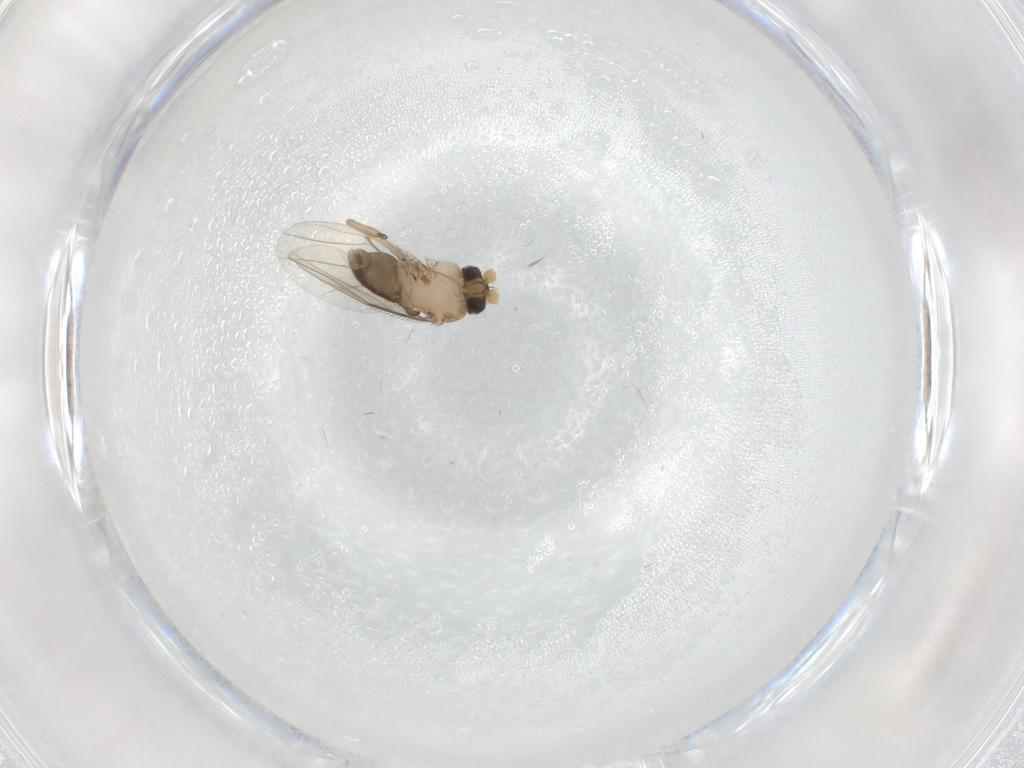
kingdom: Animalia
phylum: Arthropoda
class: Insecta
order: Diptera
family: Phoridae
